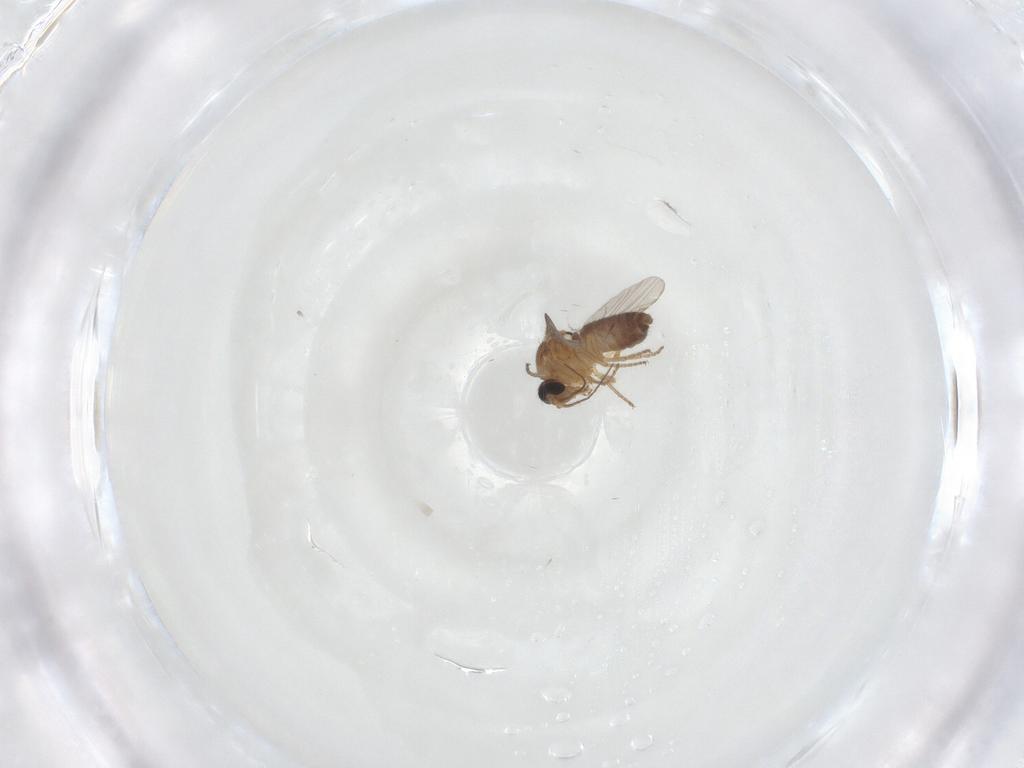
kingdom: Animalia
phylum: Arthropoda
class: Insecta
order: Diptera
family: Ceratopogonidae
